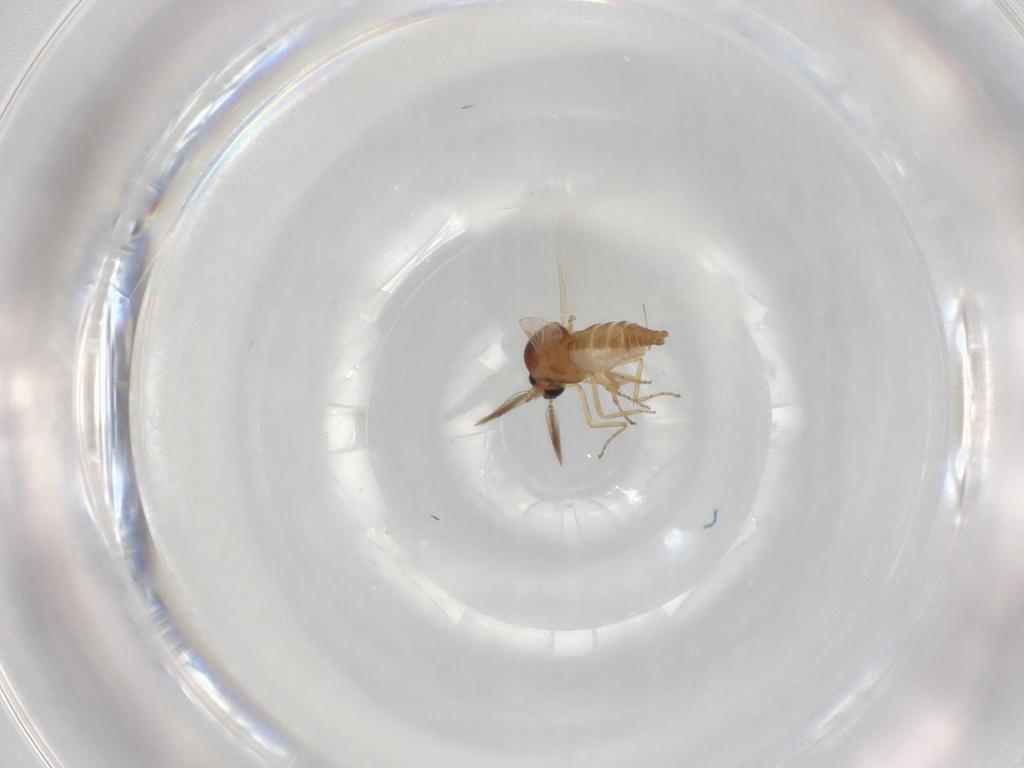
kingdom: Animalia
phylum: Arthropoda
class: Insecta
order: Diptera
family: Ceratopogonidae
